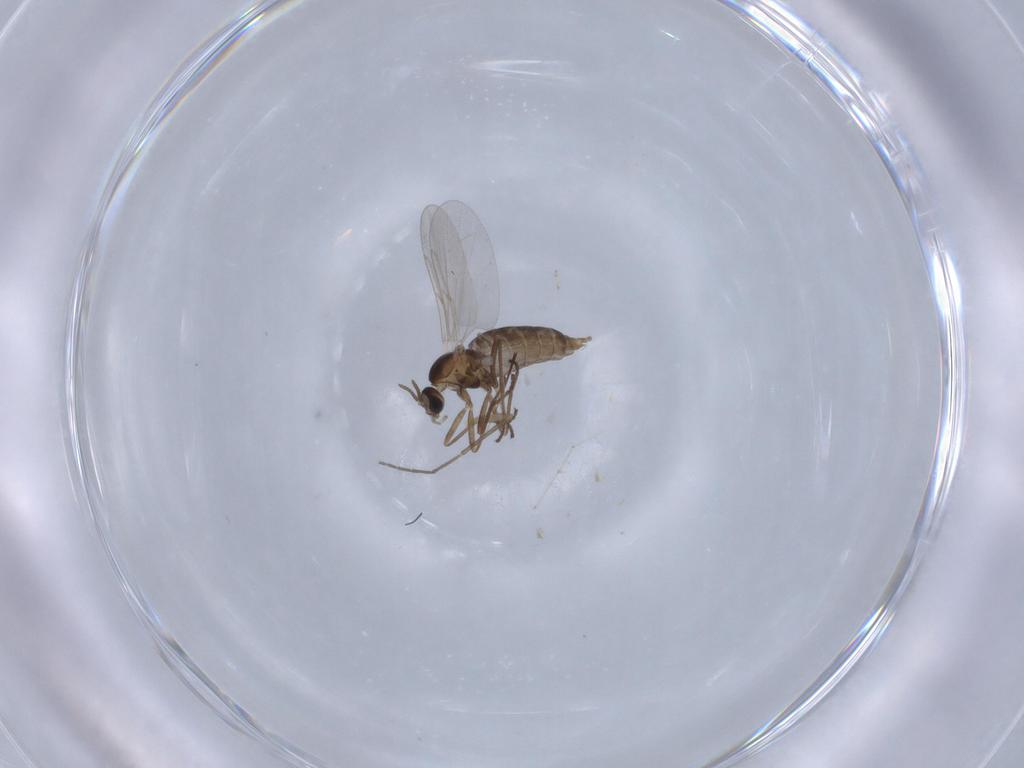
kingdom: Animalia
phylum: Arthropoda
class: Insecta
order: Diptera
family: Cecidomyiidae
